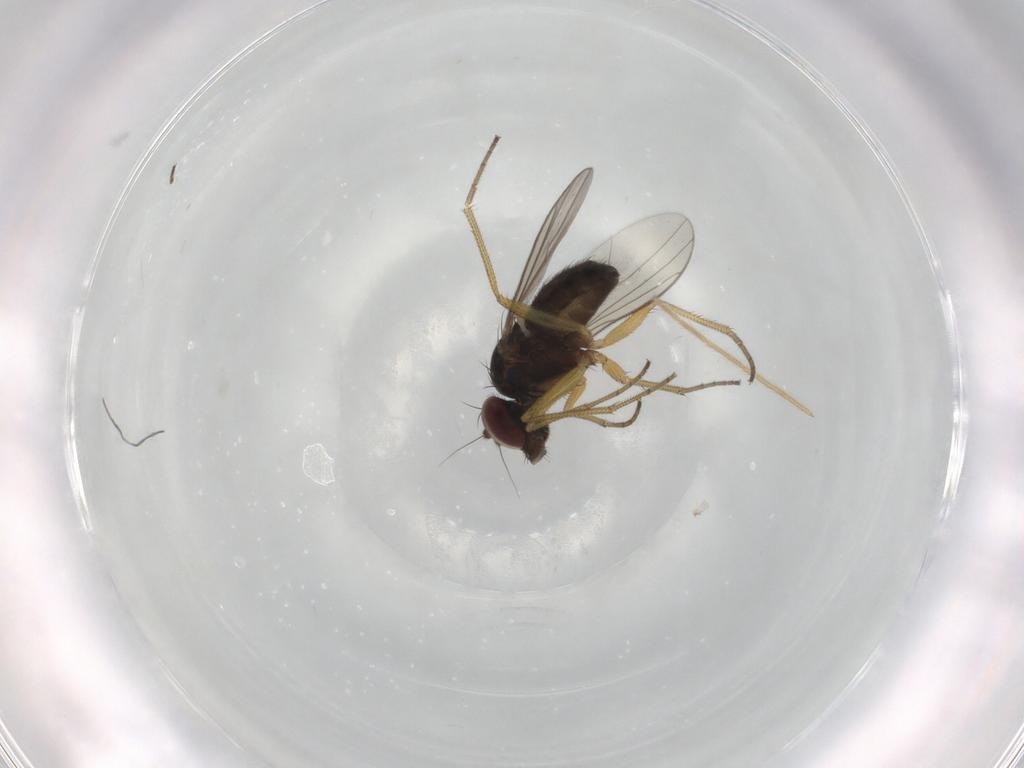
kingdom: Animalia
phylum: Arthropoda
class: Insecta
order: Diptera
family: Dolichopodidae
